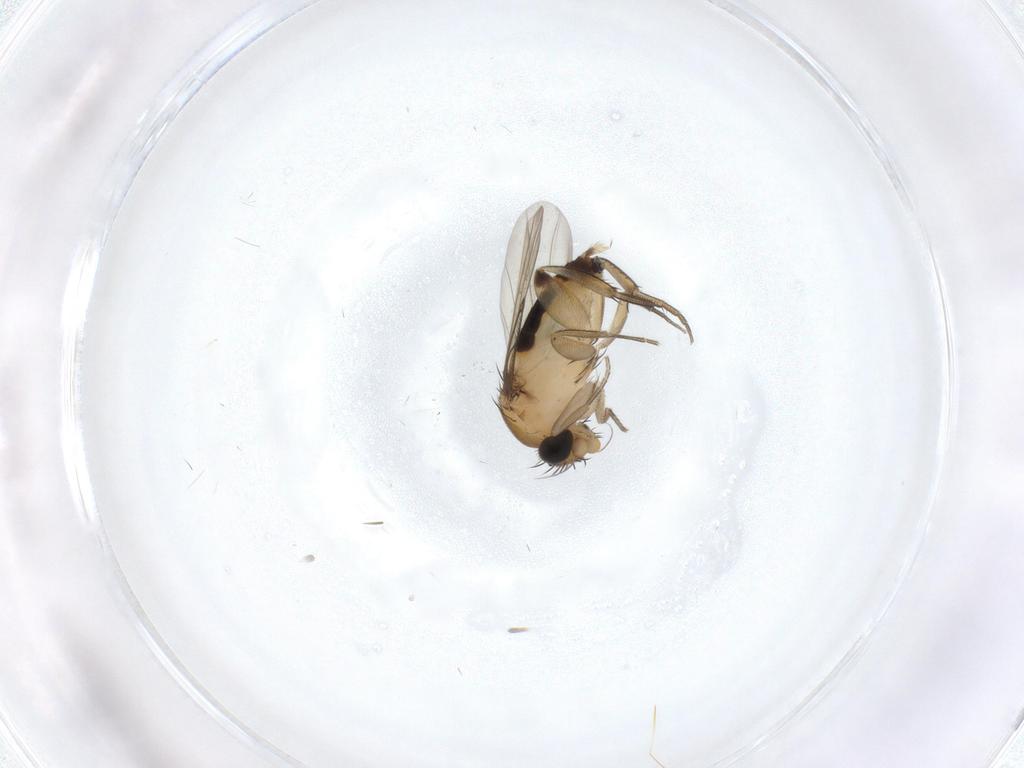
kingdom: Animalia
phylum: Arthropoda
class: Insecta
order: Diptera
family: Phoridae
